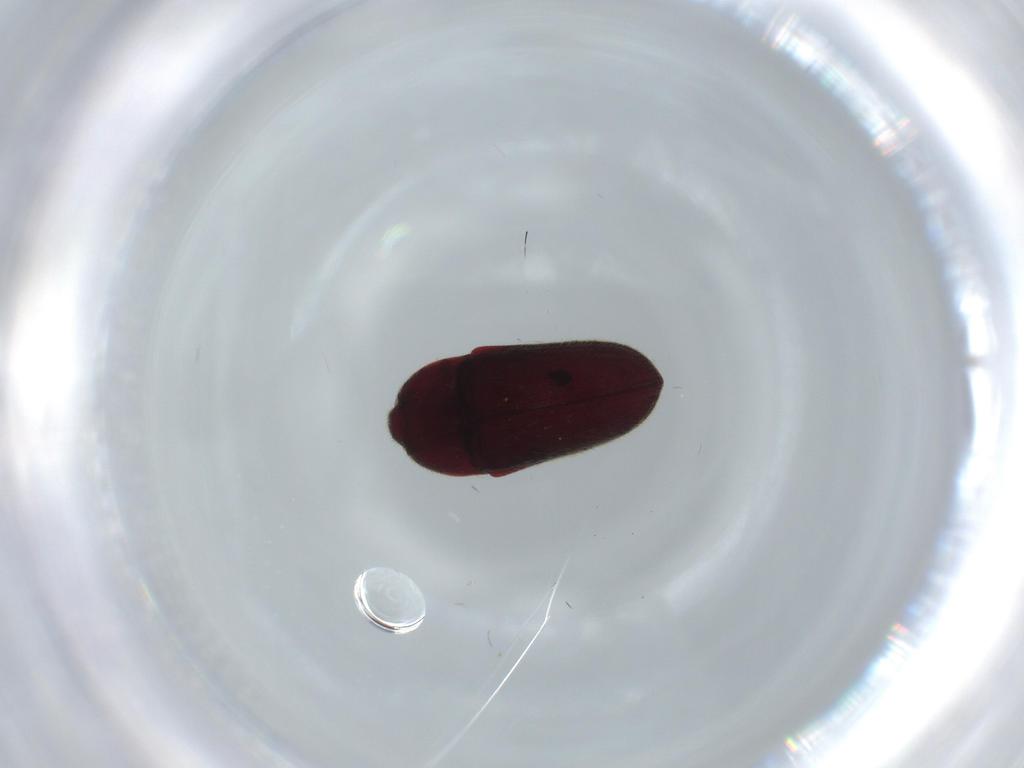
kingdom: Animalia
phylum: Arthropoda
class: Insecta
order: Coleoptera
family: Throscidae
